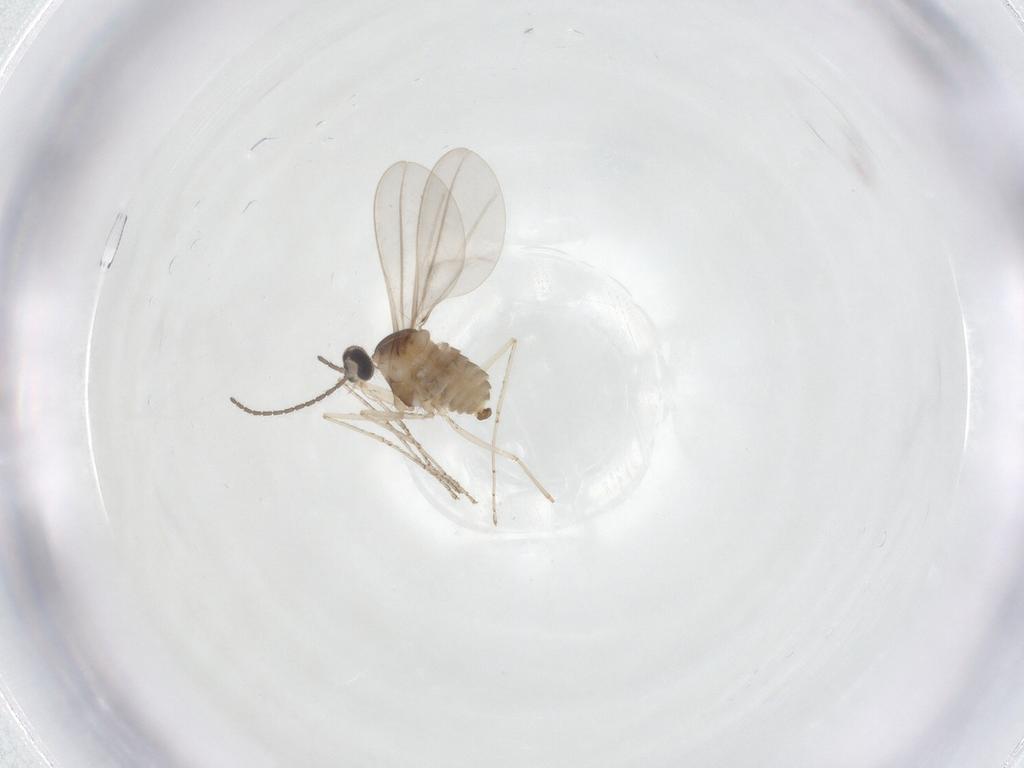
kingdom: Animalia
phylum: Arthropoda
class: Insecta
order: Diptera
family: Cecidomyiidae
